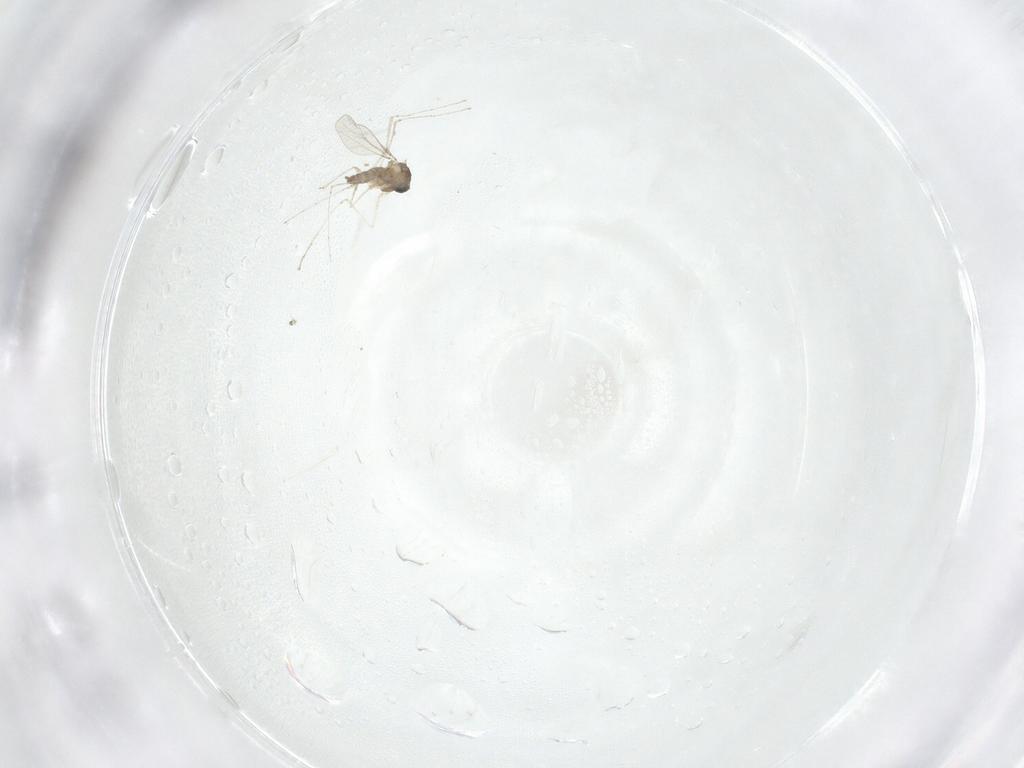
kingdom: Animalia
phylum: Arthropoda
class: Insecta
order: Diptera
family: Cecidomyiidae
